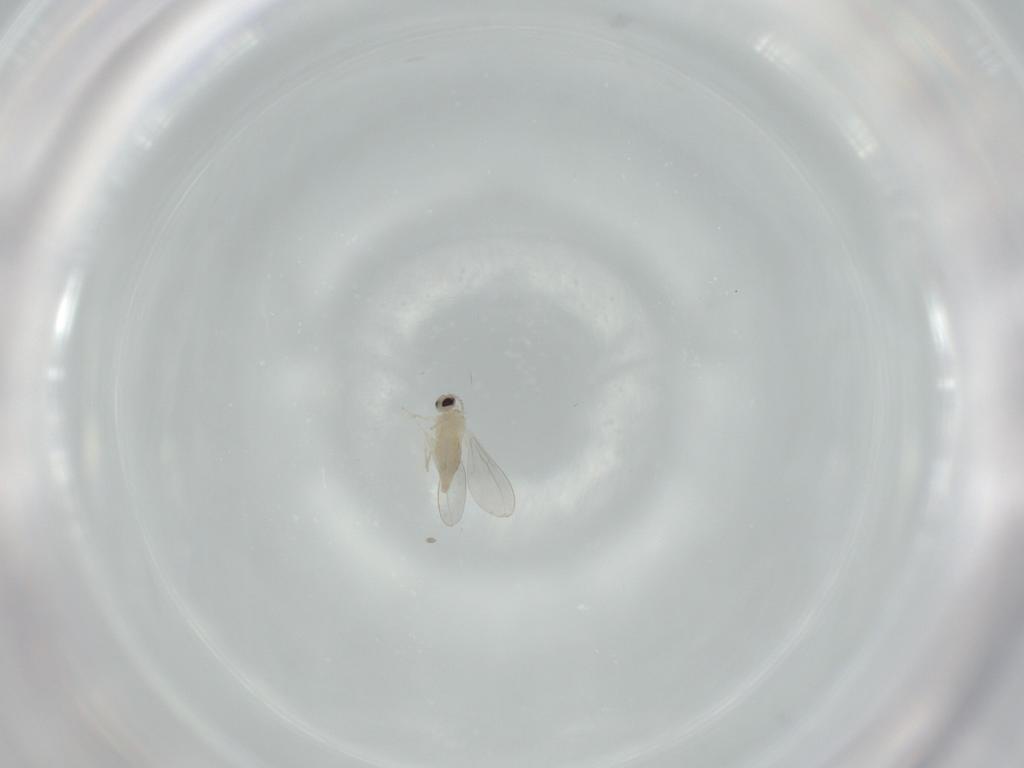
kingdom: Animalia
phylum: Arthropoda
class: Insecta
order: Diptera
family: Cecidomyiidae
